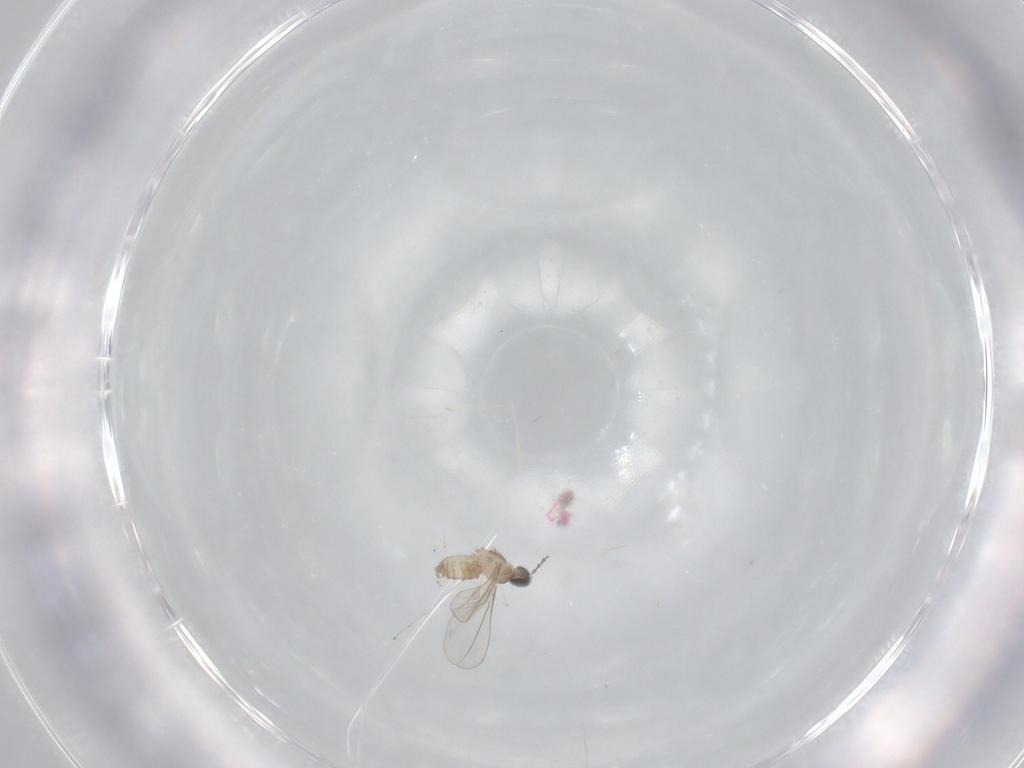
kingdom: Animalia
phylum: Arthropoda
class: Insecta
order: Diptera
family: Cecidomyiidae
